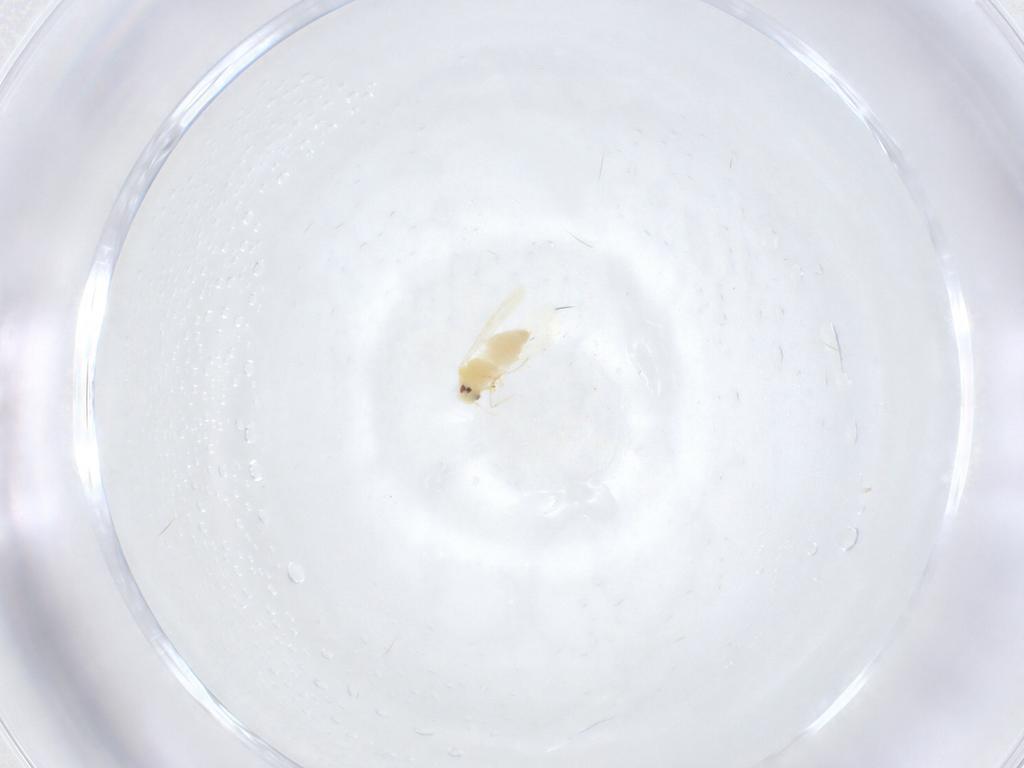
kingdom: Animalia
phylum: Arthropoda
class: Insecta
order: Hemiptera
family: Aleyrodidae
